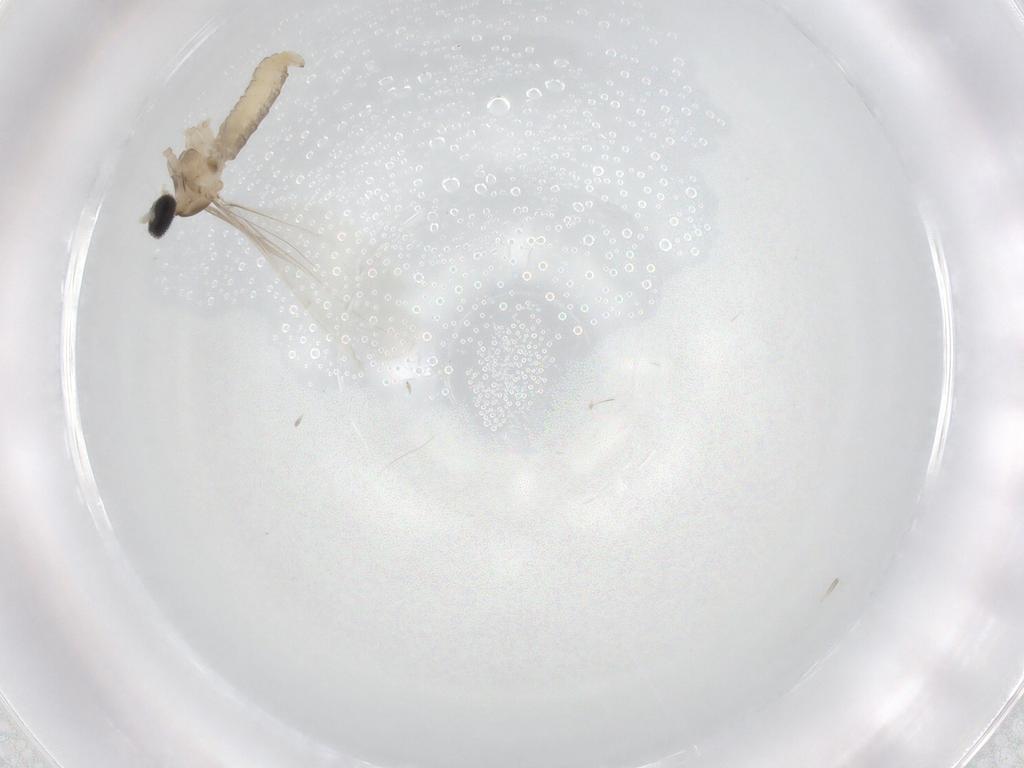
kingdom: Animalia
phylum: Arthropoda
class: Insecta
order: Diptera
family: Cecidomyiidae
